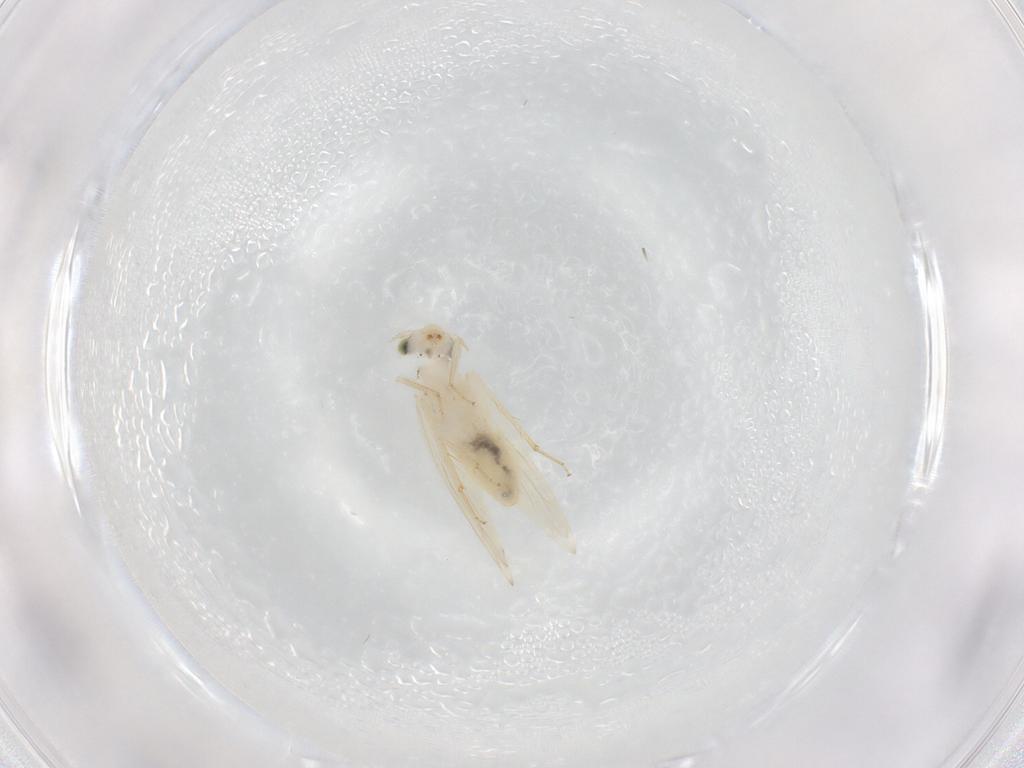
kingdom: Animalia
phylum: Arthropoda
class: Insecta
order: Psocodea
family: Lepidopsocidae
